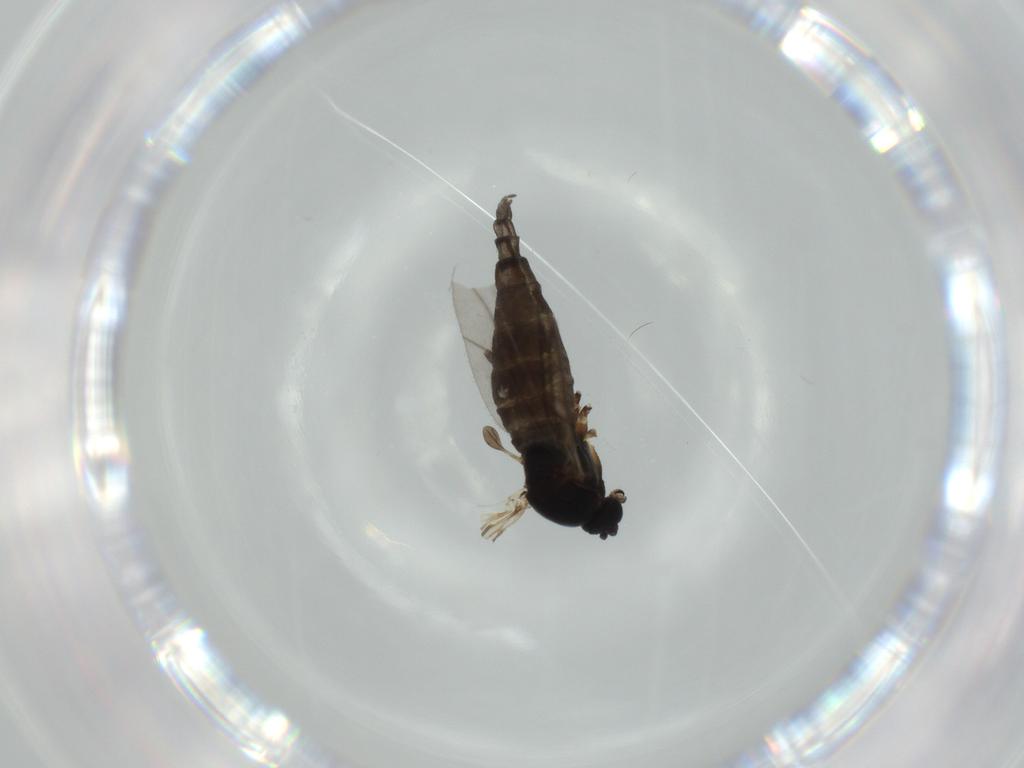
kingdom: Animalia
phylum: Arthropoda
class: Insecta
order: Diptera
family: Sciaridae
